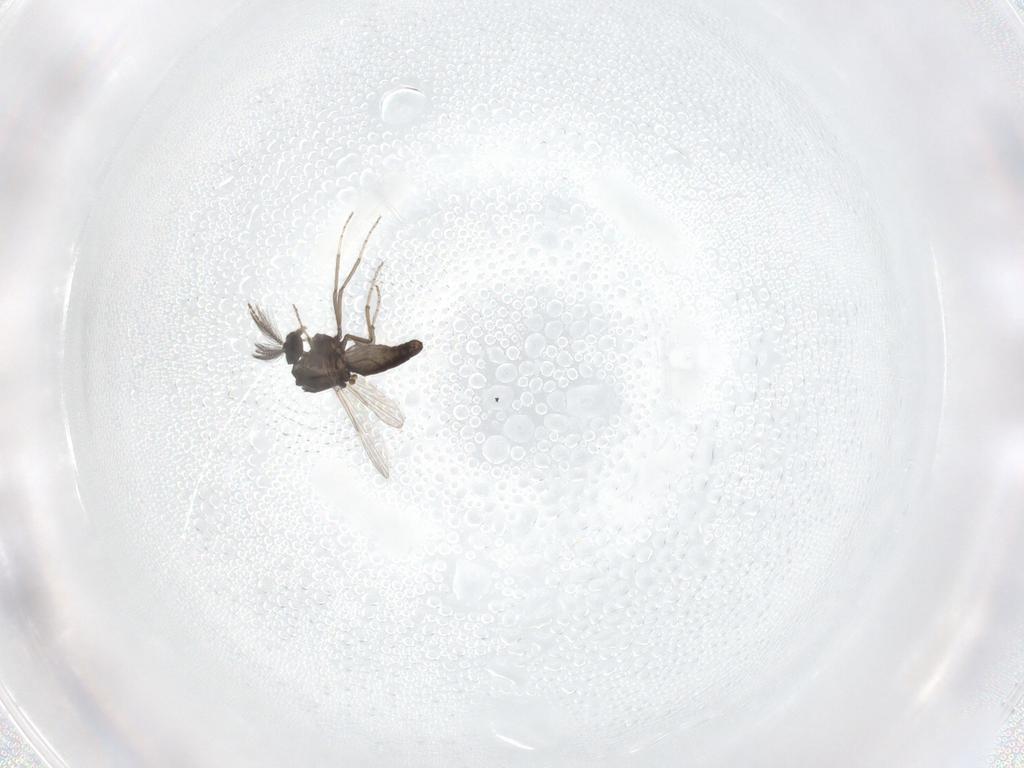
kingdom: Animalia
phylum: Arthropoda
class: Insecta
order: Diptera
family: Ceratopogonidae
